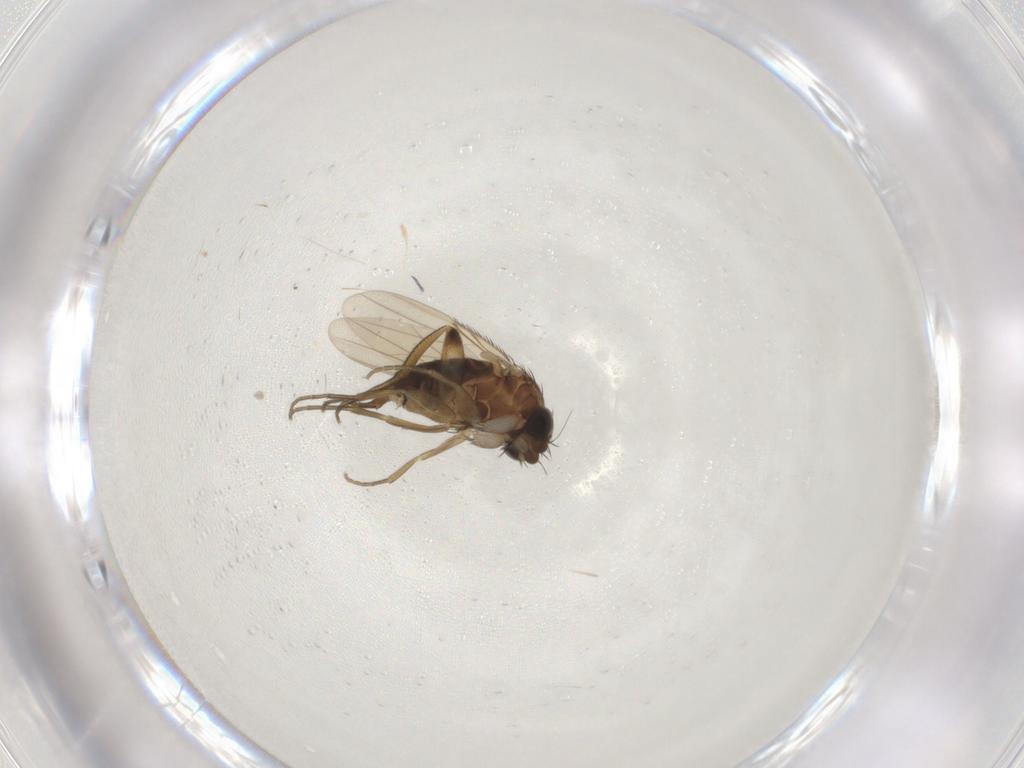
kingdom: Animalia
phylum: Arthropoda
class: Insecta
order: Diptera
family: Phoridae
